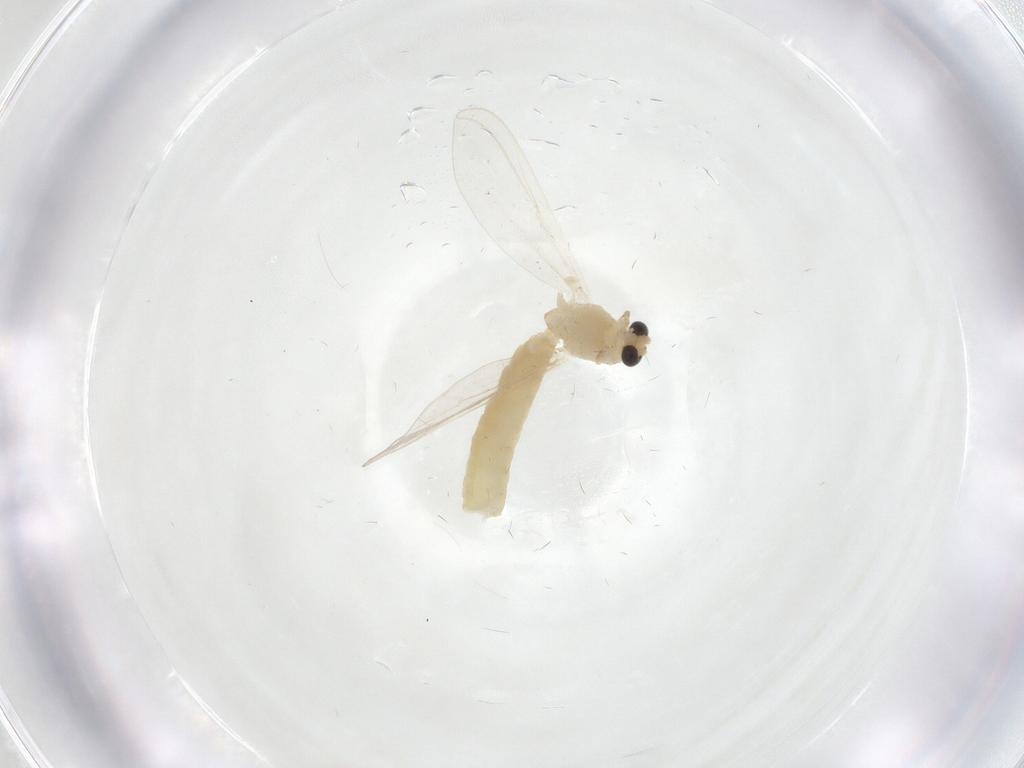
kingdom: Animalia
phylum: Arthropoda
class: Insecta
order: Diptera
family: Chironomidae
